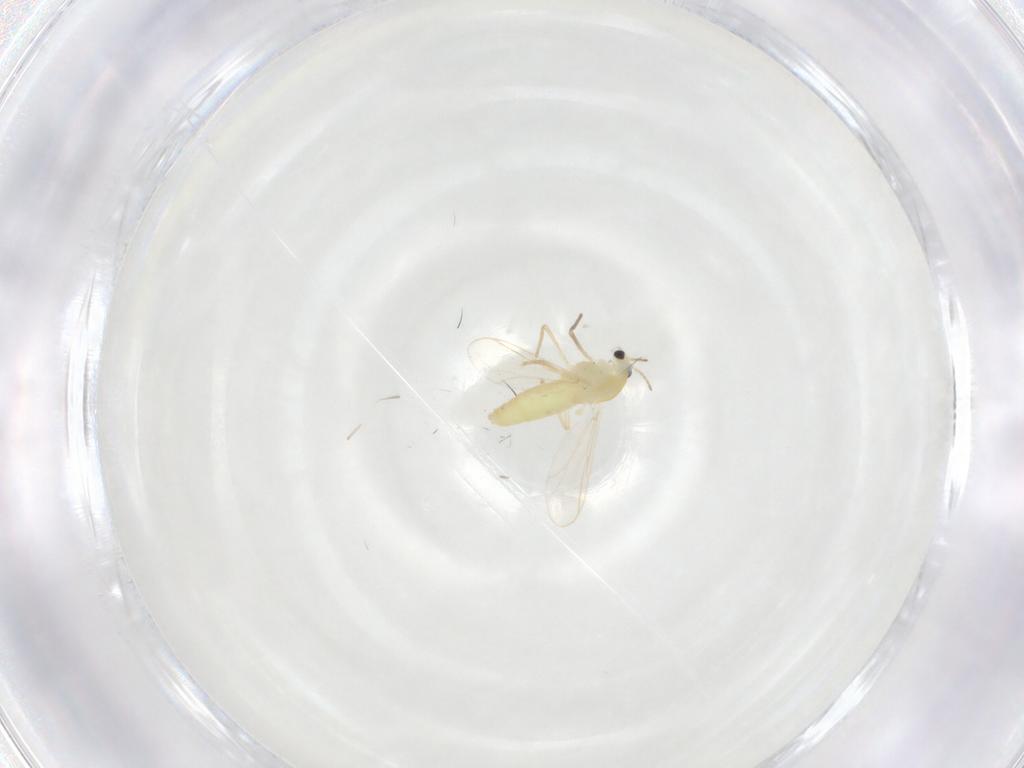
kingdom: Animalia
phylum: Arthropoda
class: Insecta
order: Diptera
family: Chironomidae
